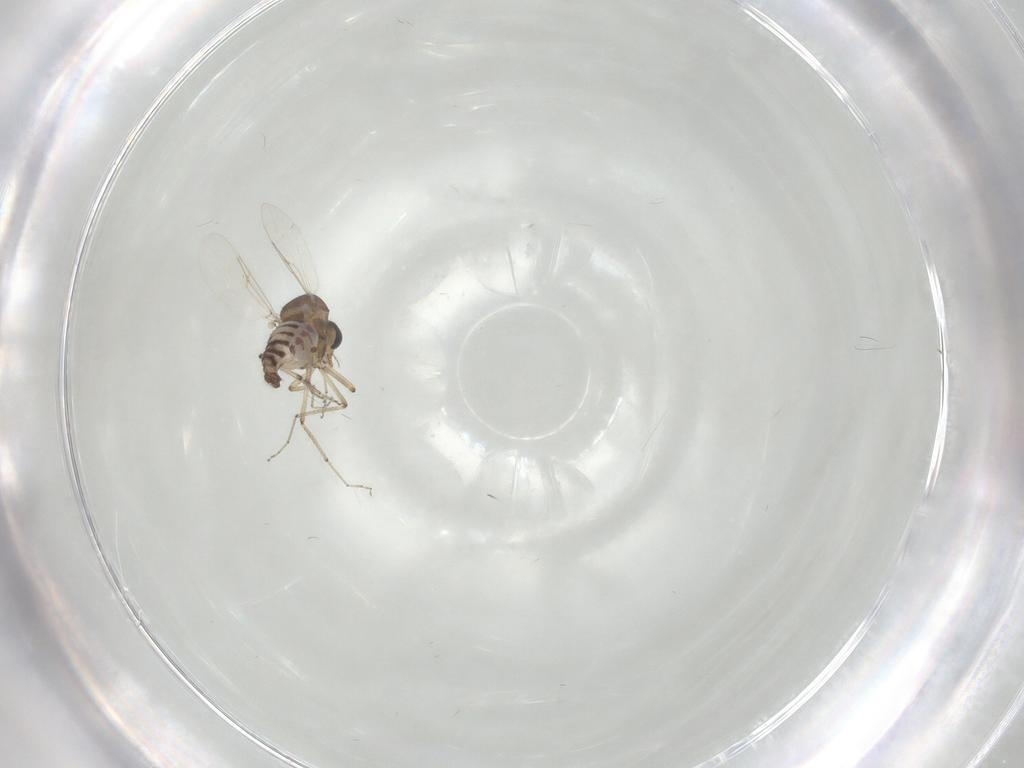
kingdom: Animalia
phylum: Arthropoda
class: Insecta
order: Diptera
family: Ceratopogonidae
